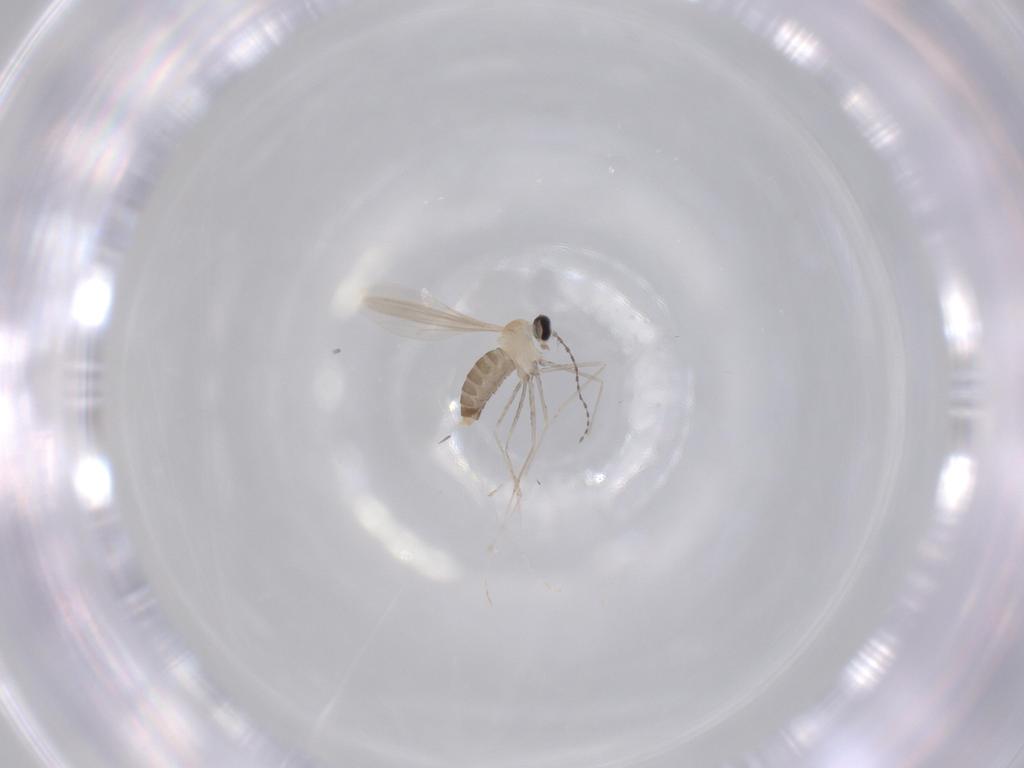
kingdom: Animalia
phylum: Arthropoda
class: Insecta
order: Diptera
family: Cecidomyiidae
